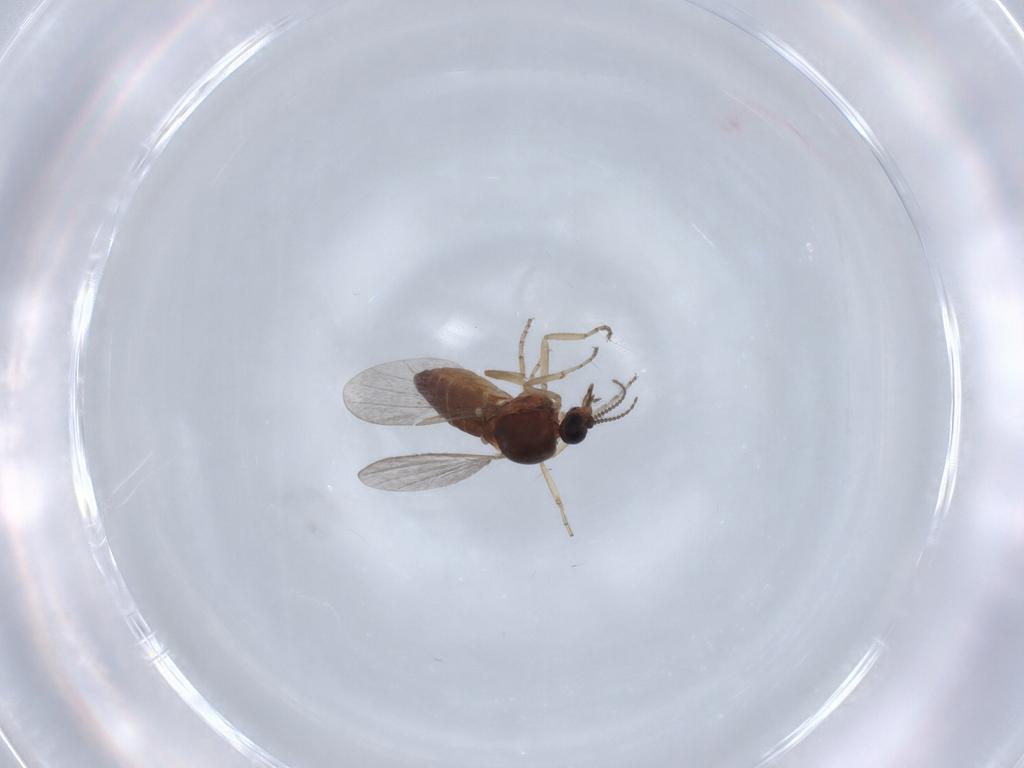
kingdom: Animalia
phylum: Arthropoda
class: Insecta
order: Diptera
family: Ceratopogonidae
